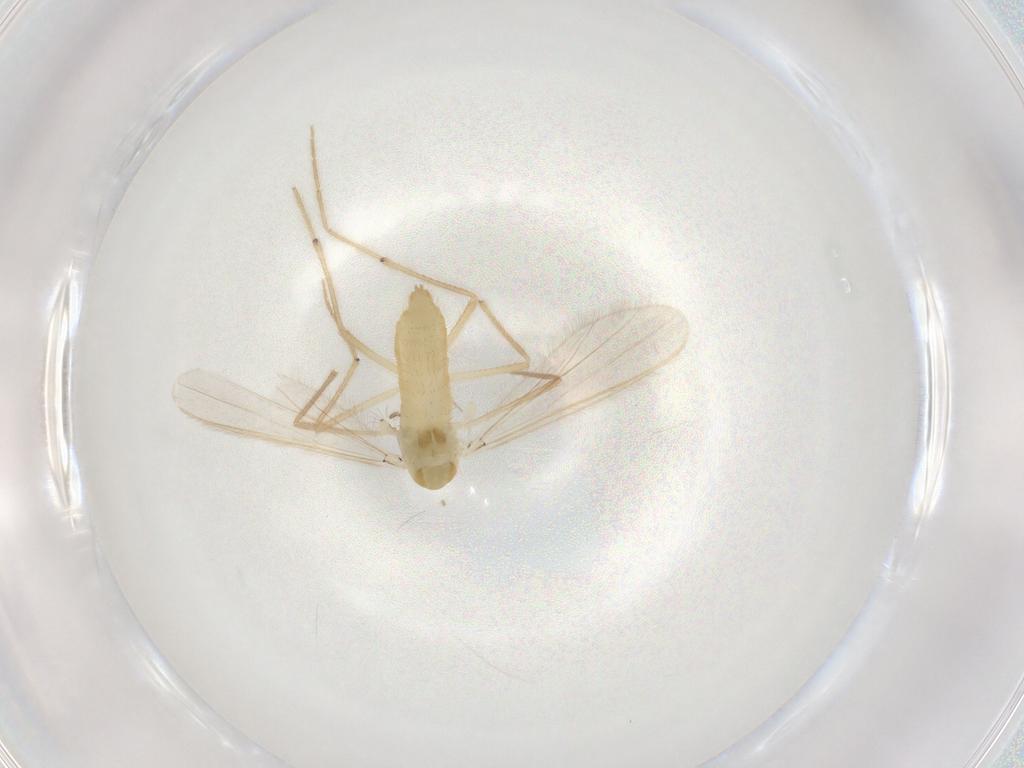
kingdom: Animalia
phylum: Arthropoda
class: Insecta
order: Diptera
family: Chironomidae
